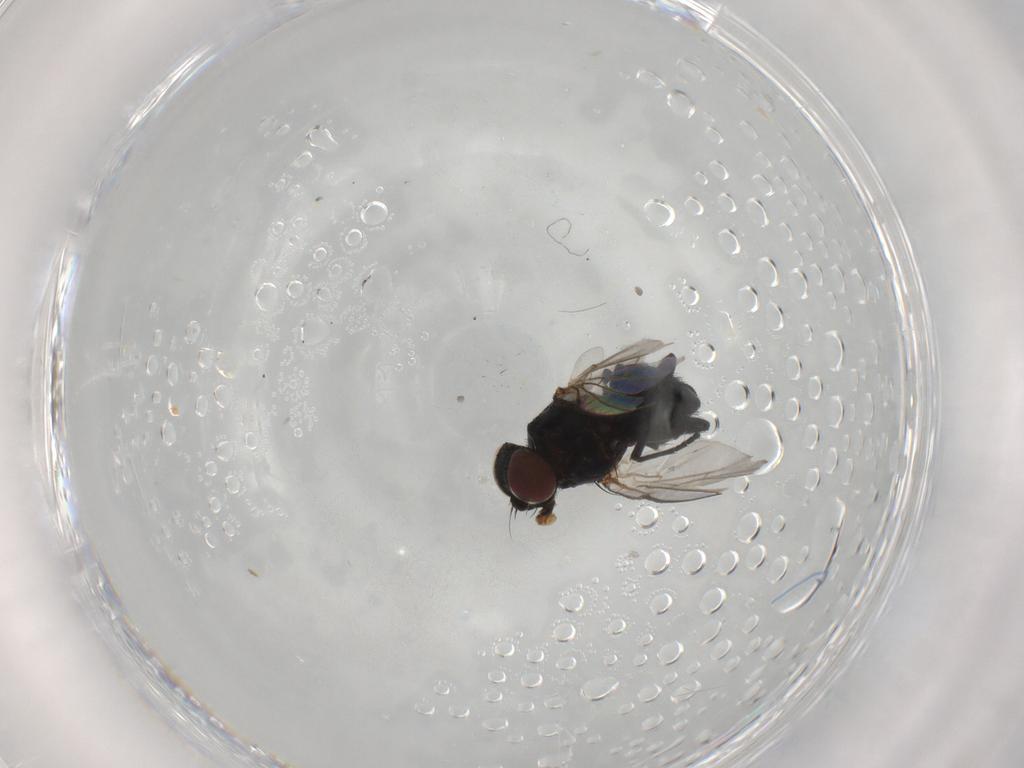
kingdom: Animalia
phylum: Arthropoda
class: Insecta
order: Diptera
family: Agromyzidae
